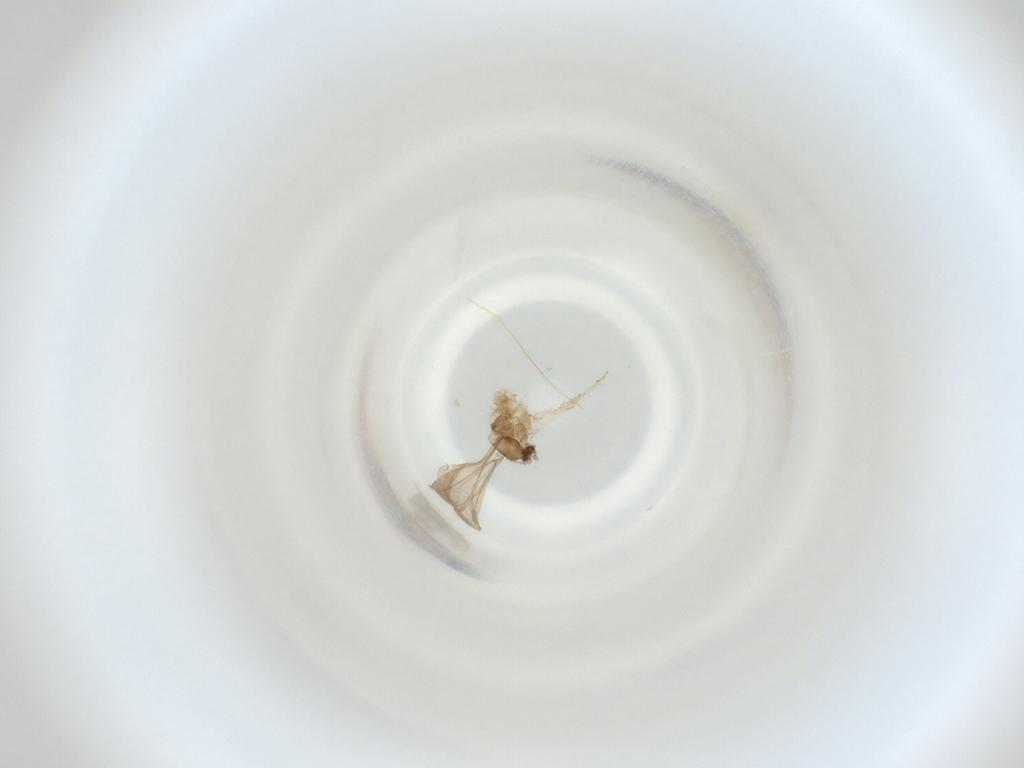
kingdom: Animalia
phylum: Arthropoda
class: Insecta
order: Diptera
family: Cecidomyiidae
